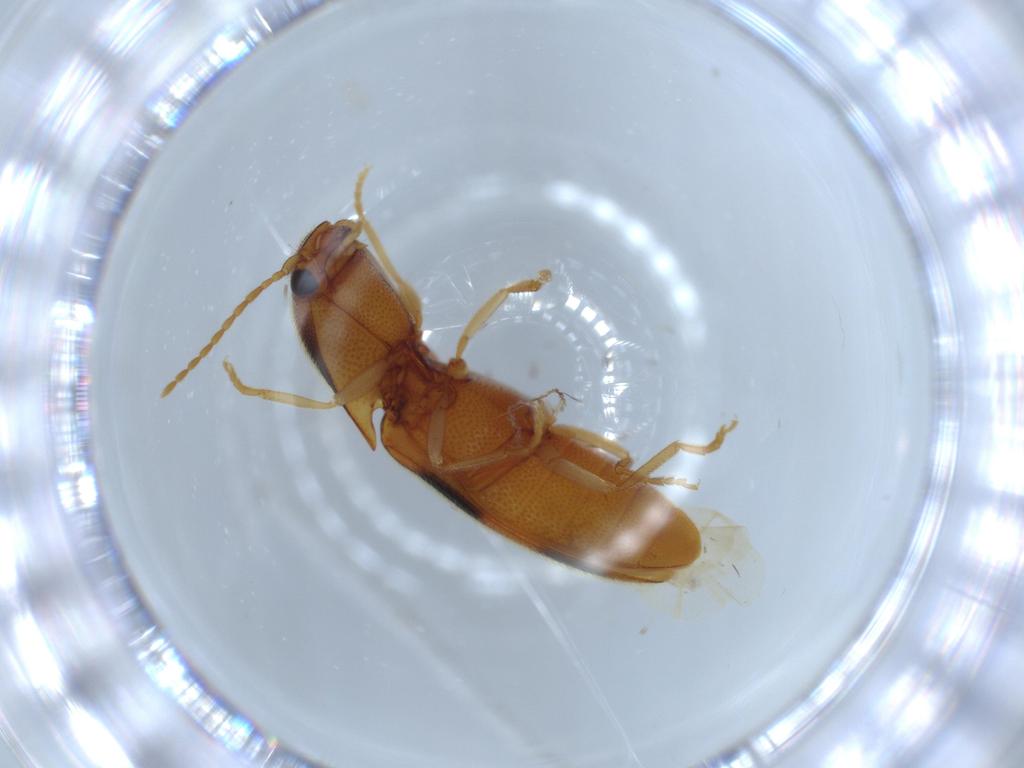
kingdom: Animalia
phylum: Arthropoda
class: Insecta
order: Coleoptera
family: Elateridae
